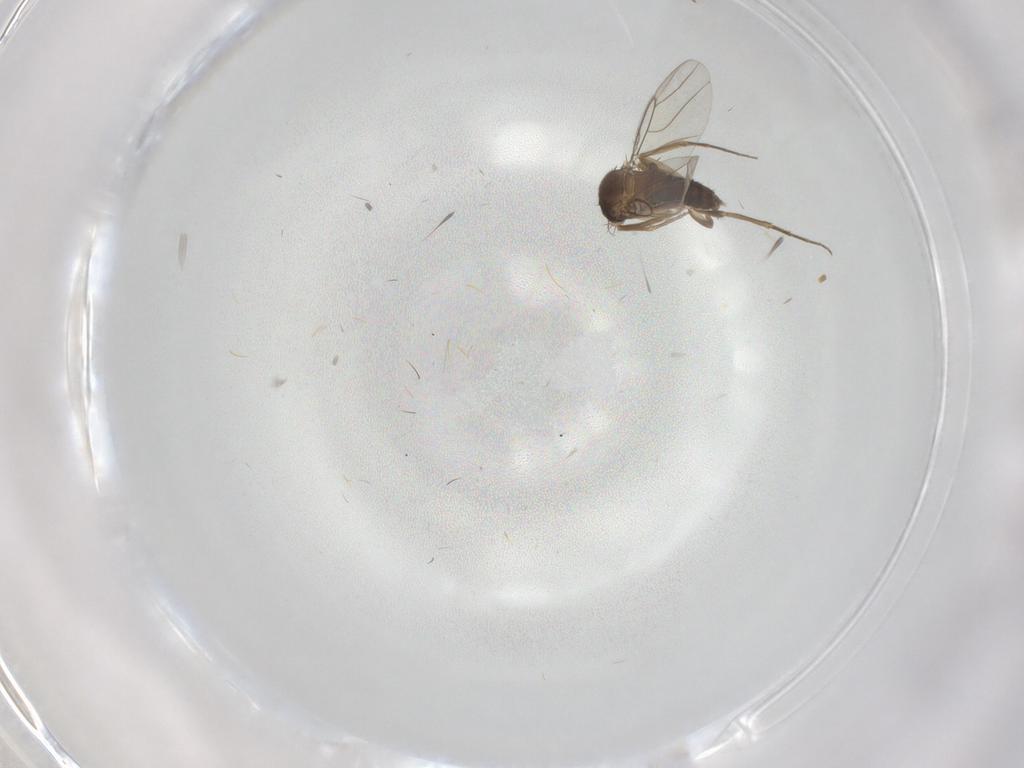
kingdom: Animalia
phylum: Arthropoda
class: Insecta
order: Diptera
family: Phoridae
